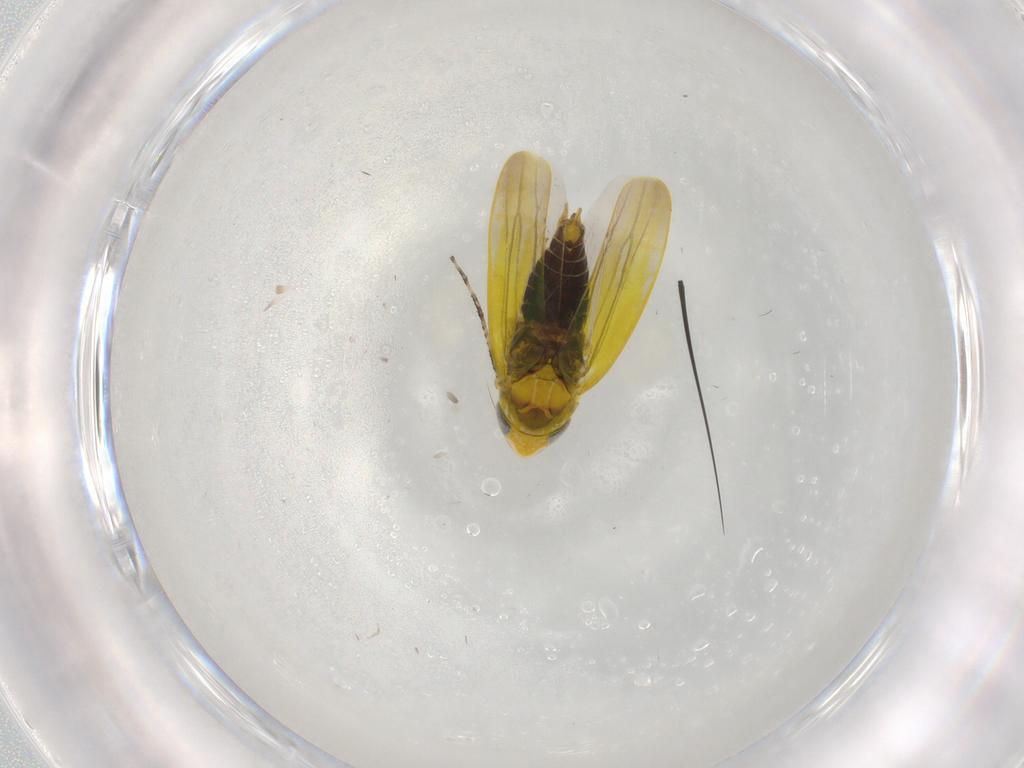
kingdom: Animalia
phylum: Arthropoda
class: Insecta
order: Hemiptera
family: Cicadellidae
